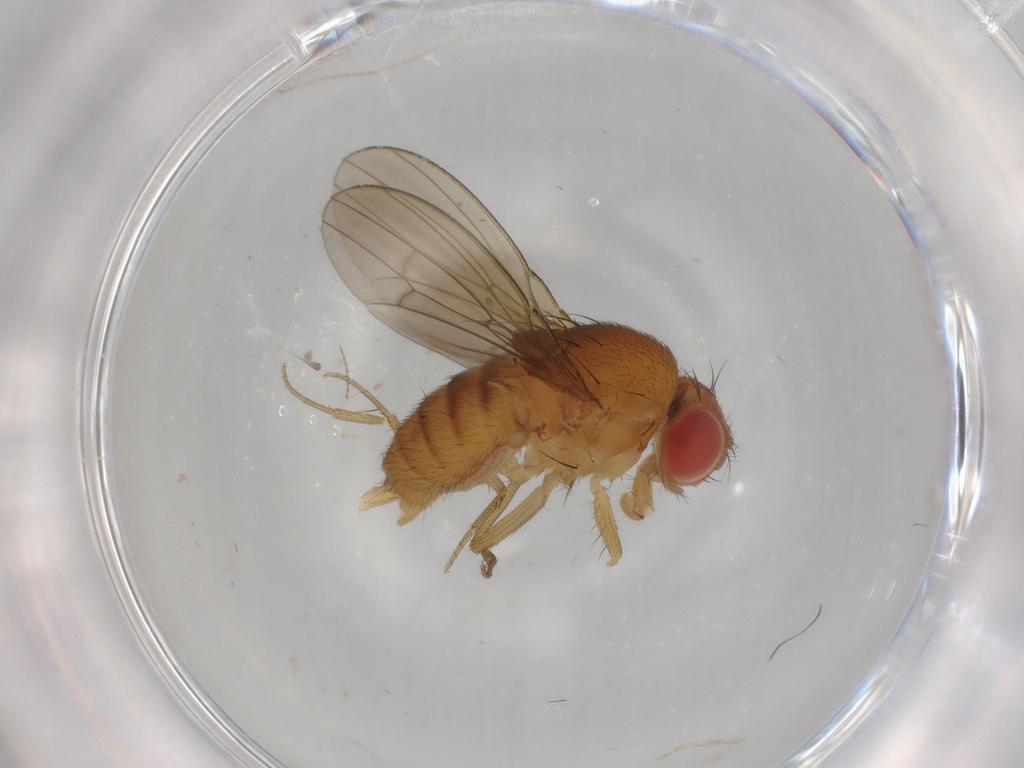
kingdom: Animalia
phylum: Arthropoda
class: Insecta
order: Diptera
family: Drosophilidae
